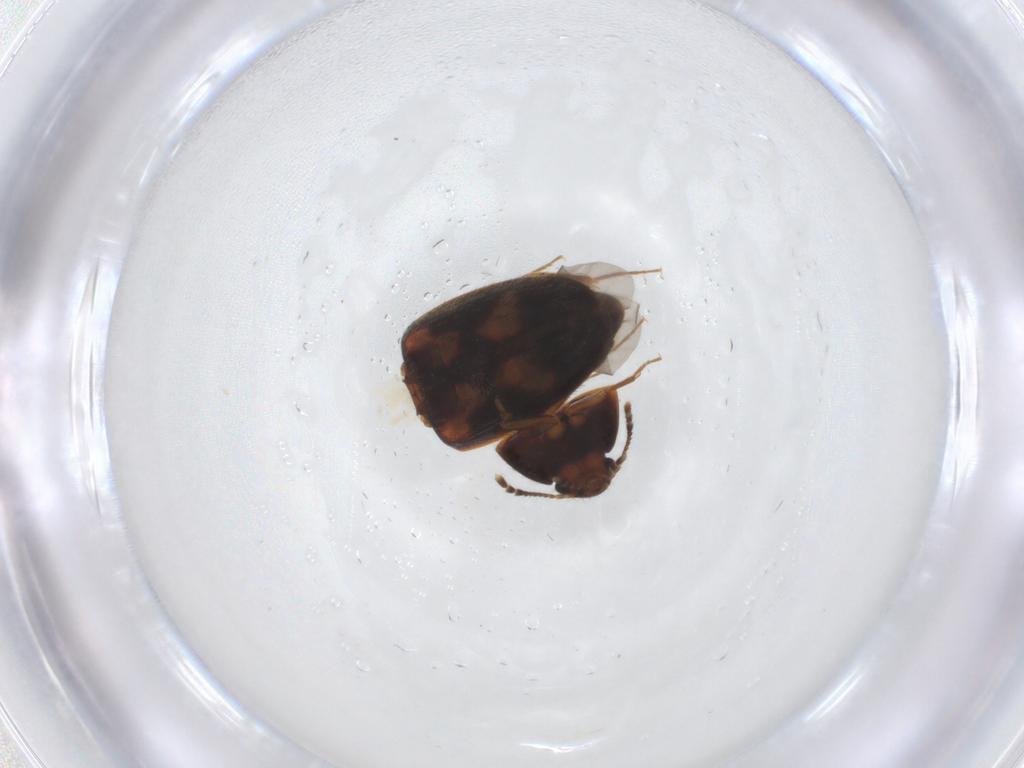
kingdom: Animalia
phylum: Arthropoda
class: Insecta
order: Coleoptera
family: Mycetophagidae
